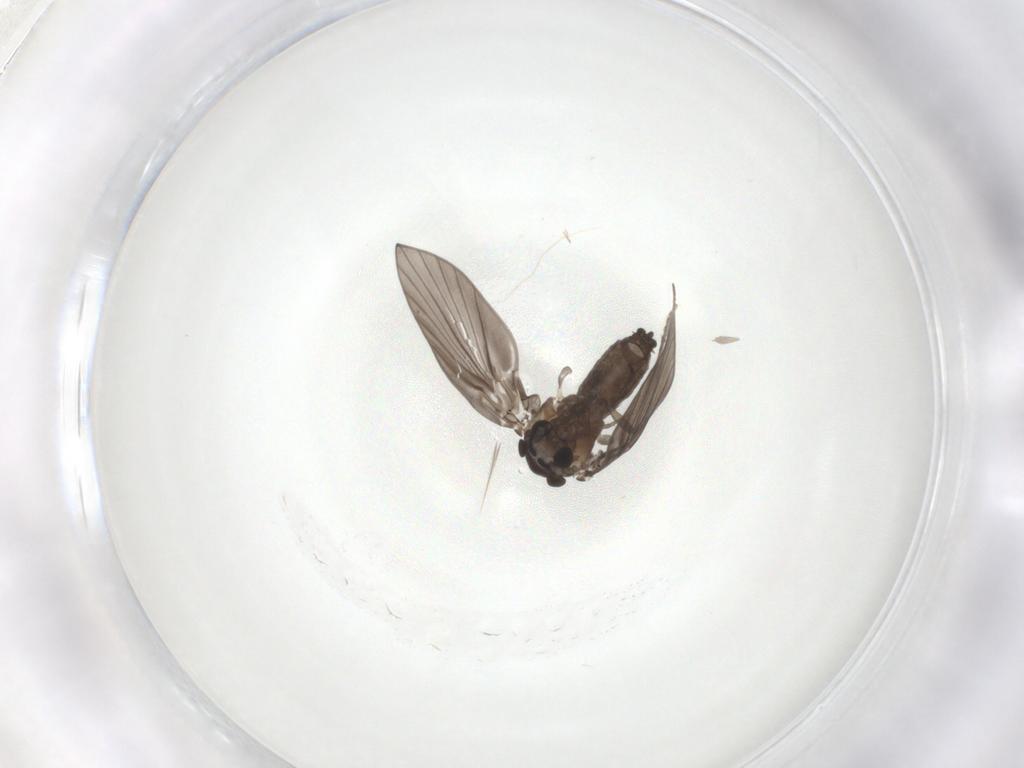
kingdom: Animalia
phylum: Arthropoda
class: Insecta
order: Diptera
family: Psychodidae
